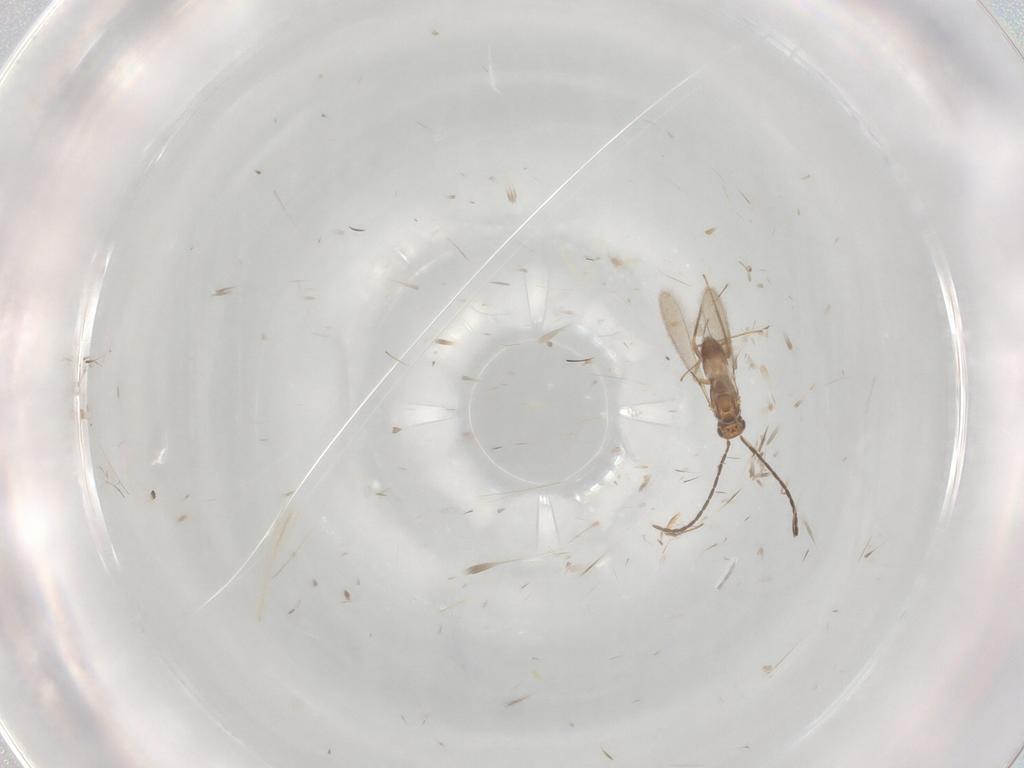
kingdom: Animalia
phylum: Arthropoda
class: Insecta
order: Hymenoptera
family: Mymaridae
